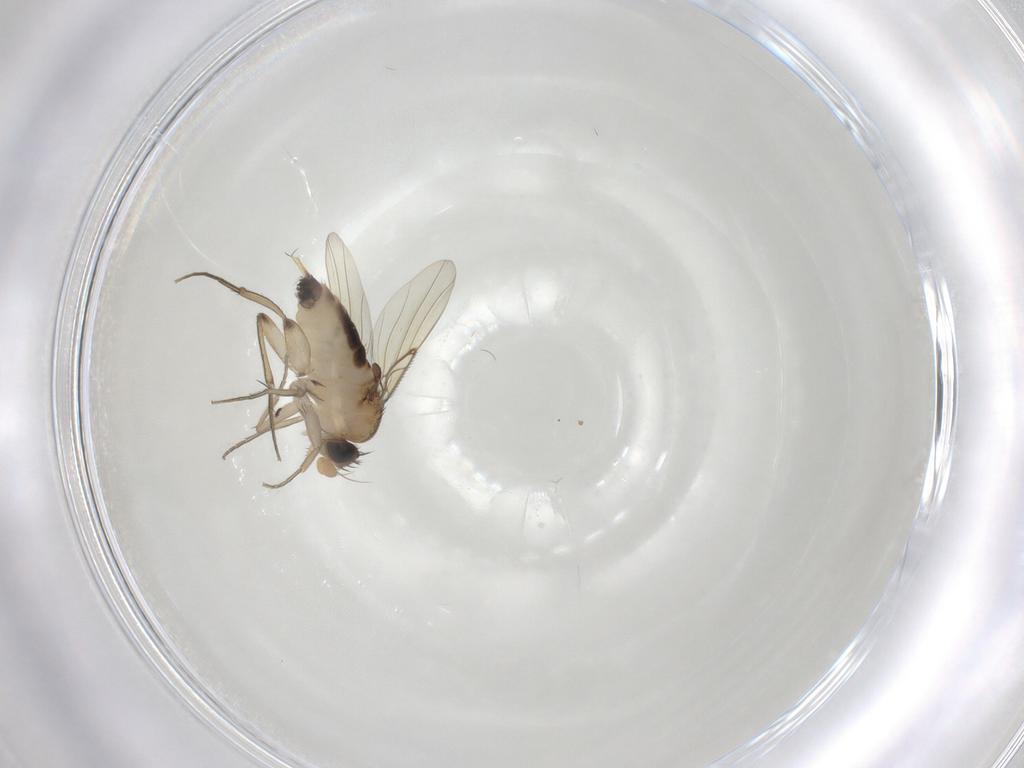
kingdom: Animalia
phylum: Arthropoda
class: Insecta
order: Diptera
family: Phoridae
